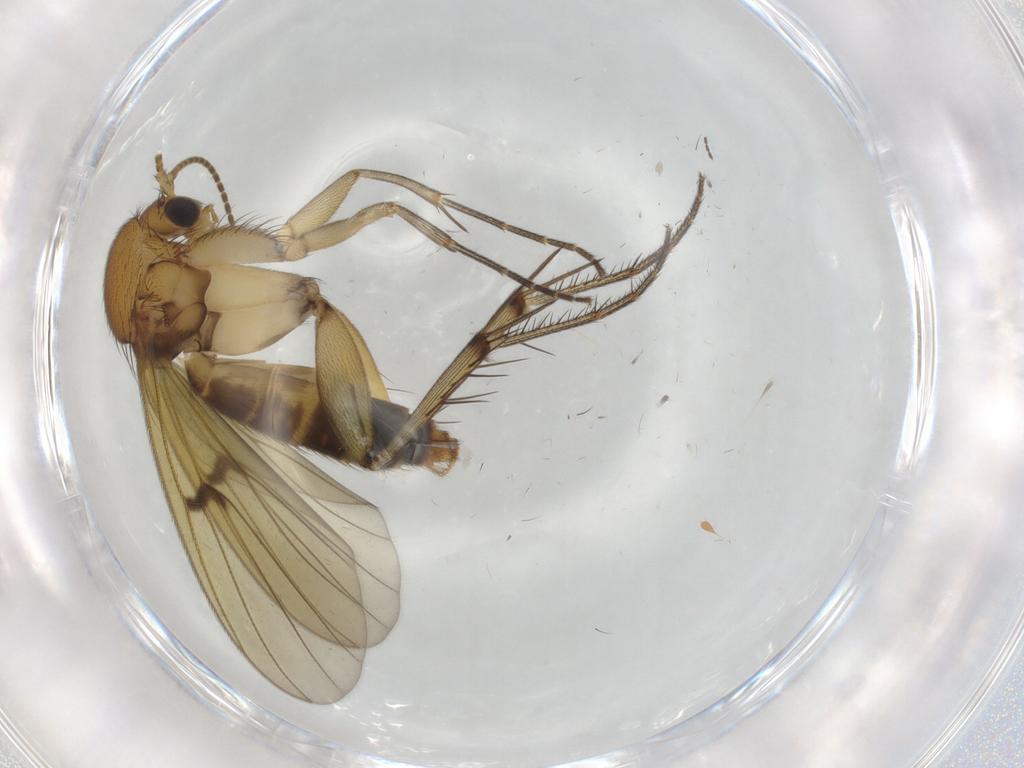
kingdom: Animalia
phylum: Arthropoda
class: Insecta
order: Diptera
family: Mycetophilidae
